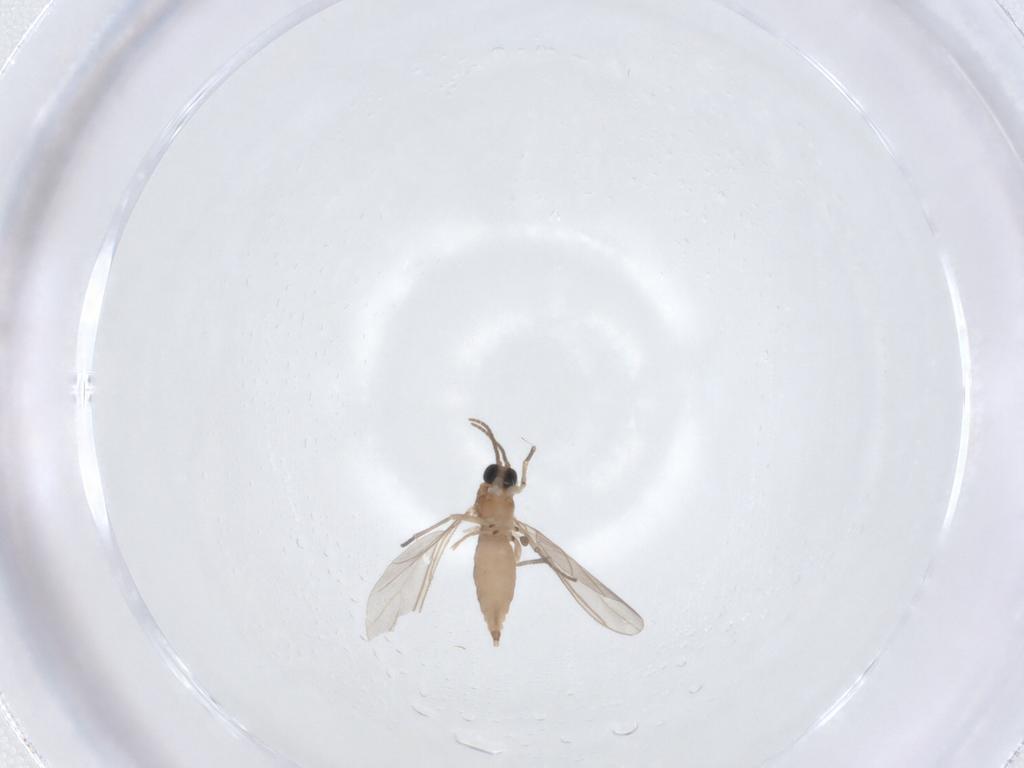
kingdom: Animalia
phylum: Arthropoda
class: Insecta
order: Diptera
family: Sciaridae
